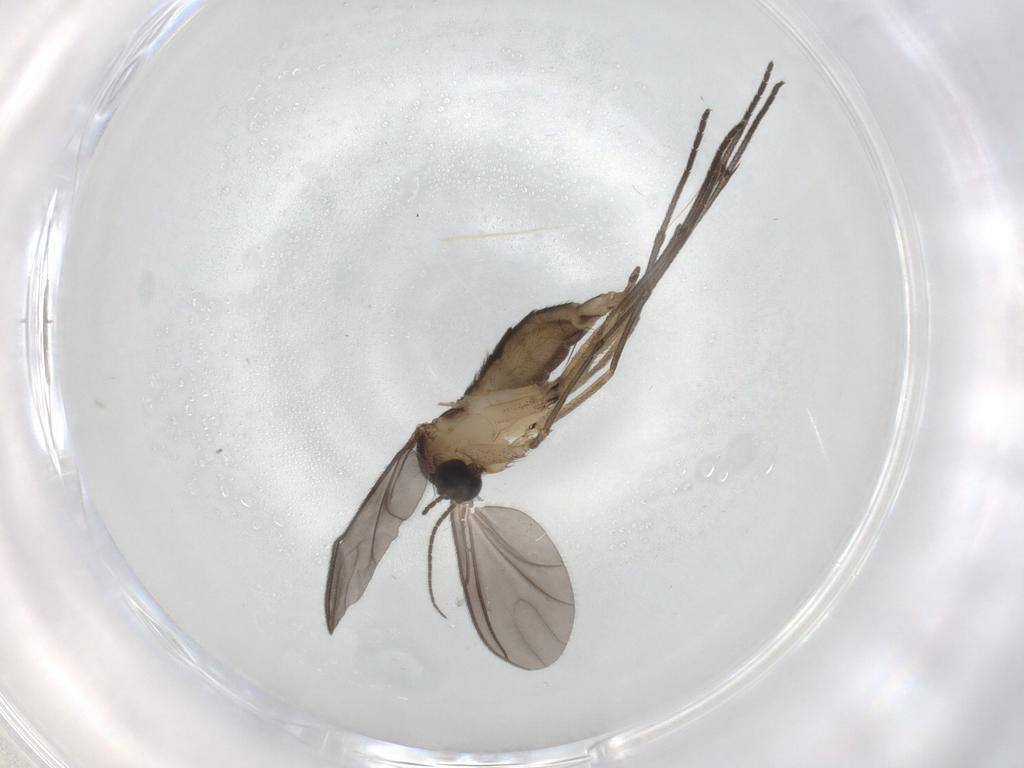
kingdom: Animalia
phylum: Arthropoda
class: Insecta
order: Diptera
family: Sciaridae
